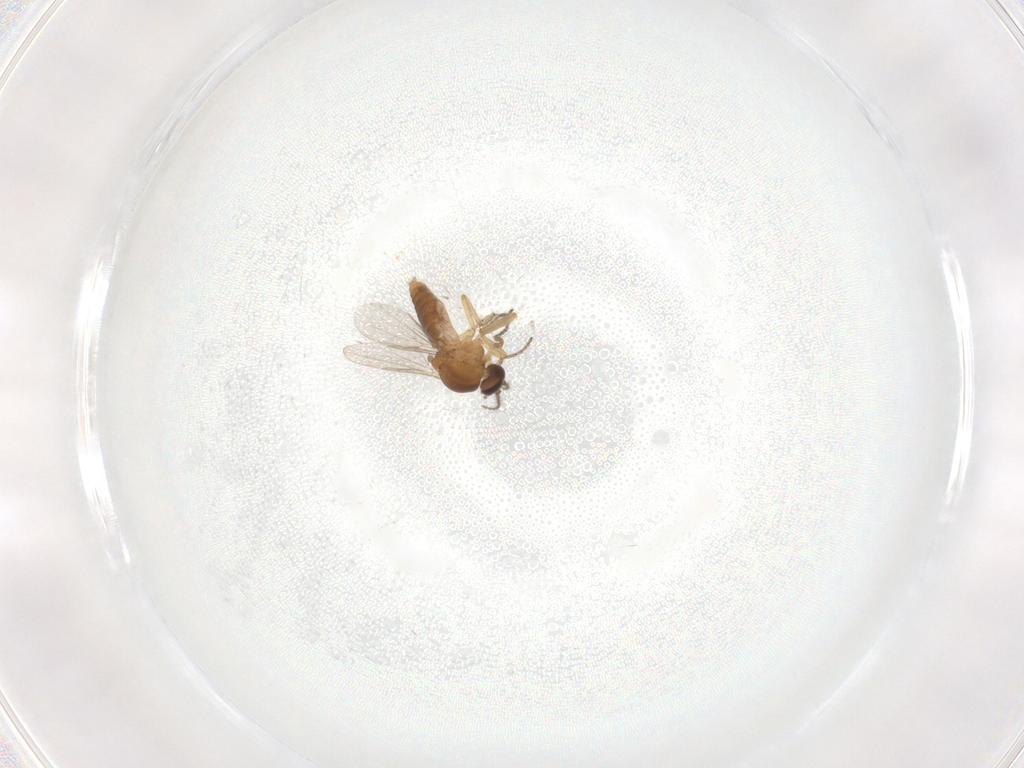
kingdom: Animalia
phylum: Arthropoda
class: Insecta
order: Diptera
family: Ceratopogonidae
